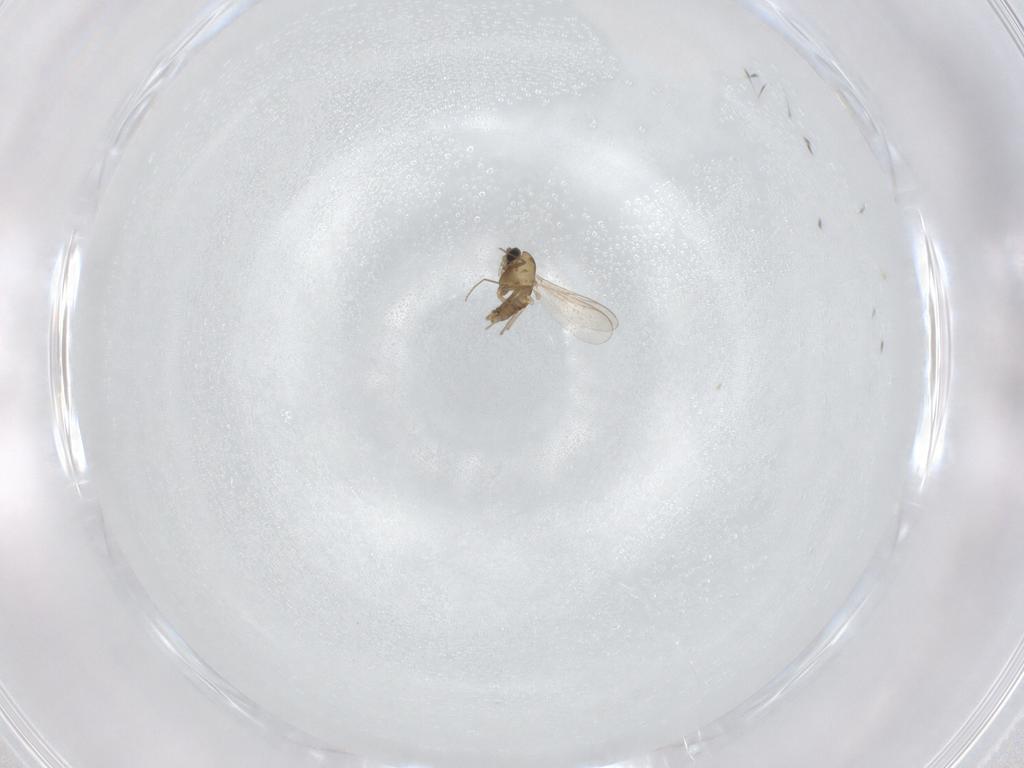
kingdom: Animalia
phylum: Arthropoda
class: Insecta
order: Diptera
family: Chironomidae
